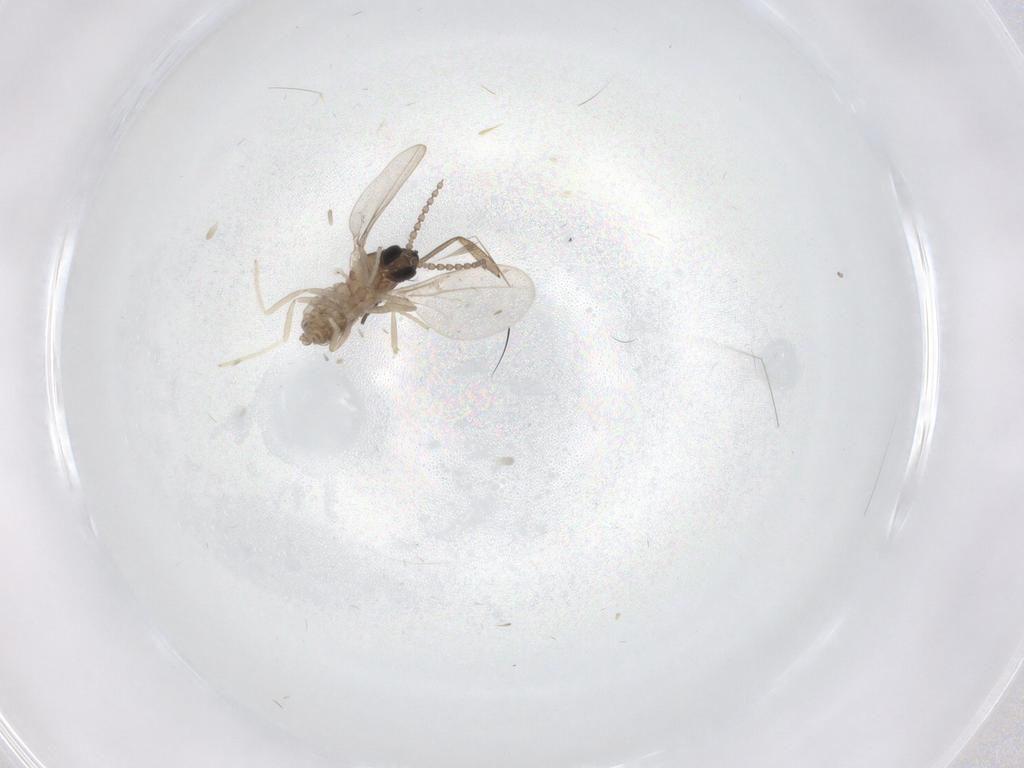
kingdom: Animalia
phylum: Arthropoda
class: Insecta
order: Diptera
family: Cecidomyiidae
